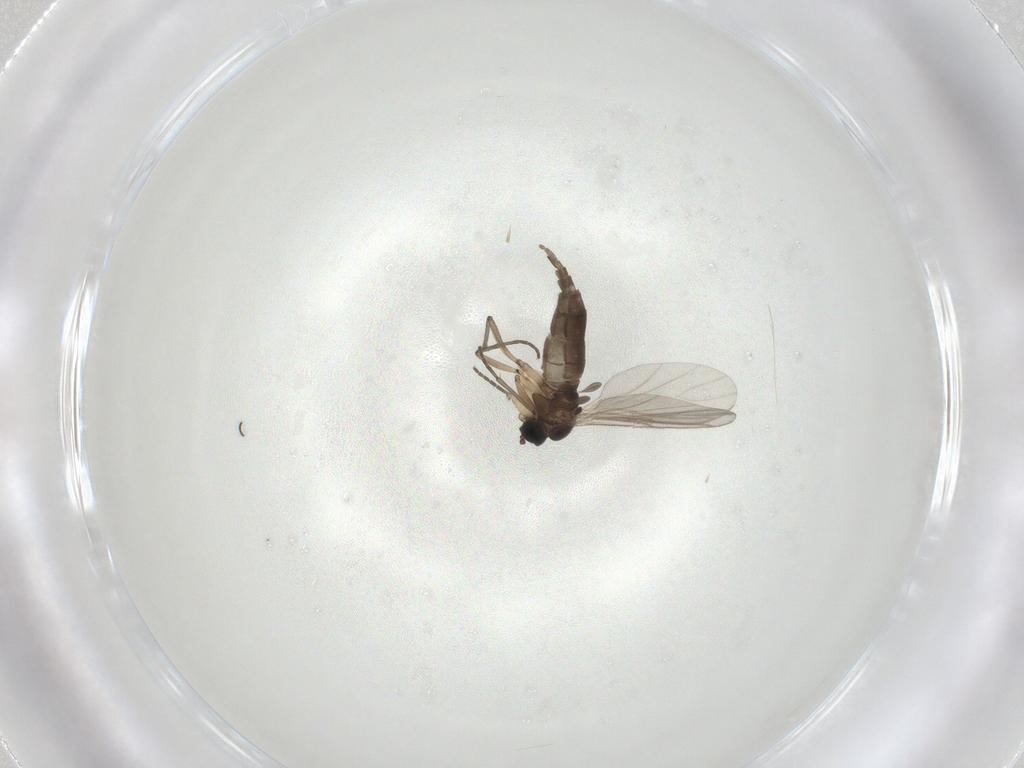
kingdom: Animalia
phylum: Arthropoda
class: Insecta
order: Diptera
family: Sciaridae
